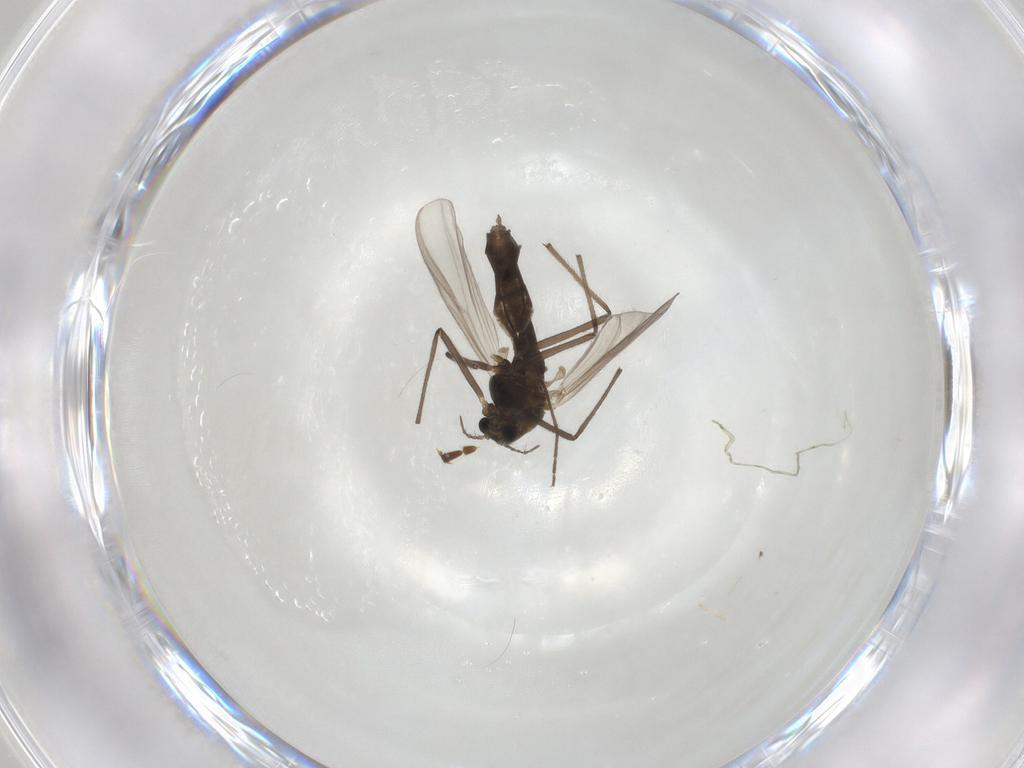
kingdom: Animalia
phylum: Arthropoda
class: Insecta
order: Diptera
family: Chironomidae
